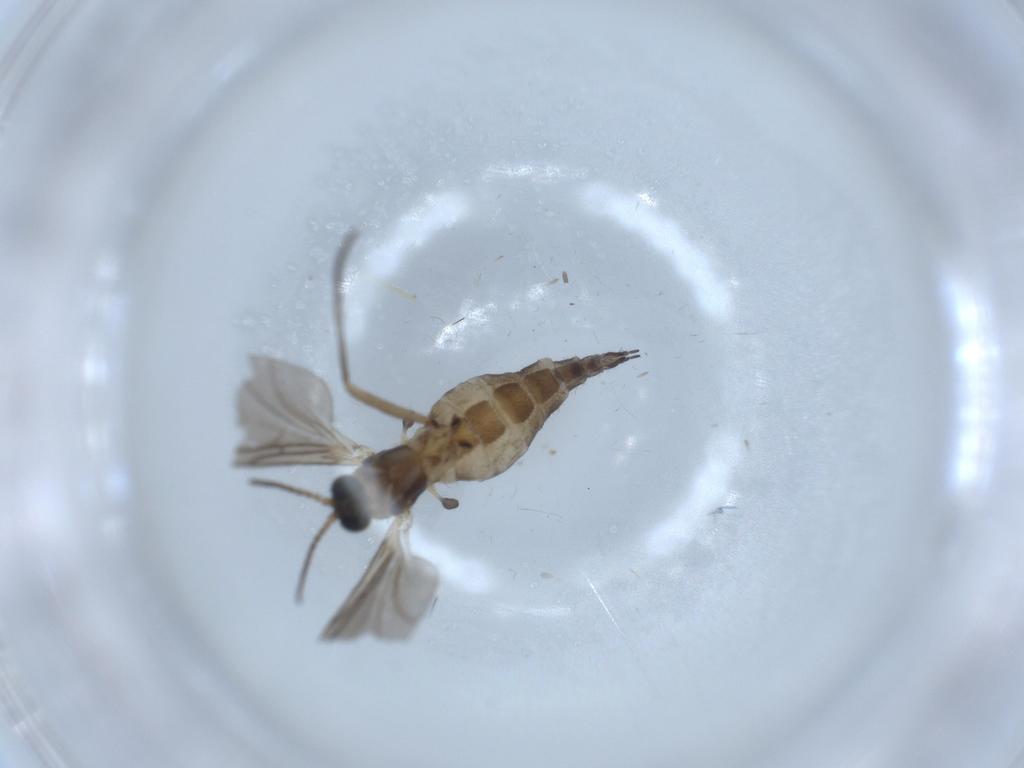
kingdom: Animalia
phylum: Arthropoda
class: Insecta
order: Diptera
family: Sciaridae
